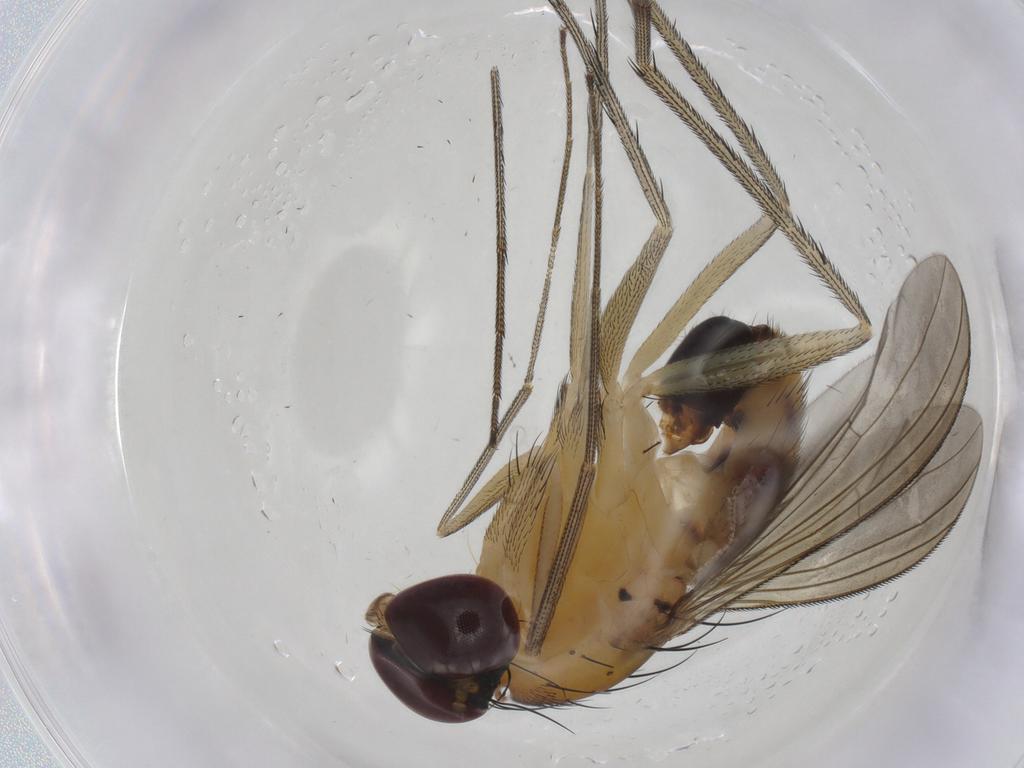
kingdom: Animalia
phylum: Arthropoda
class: Insecta
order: Diptera
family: Dolichopodidae
